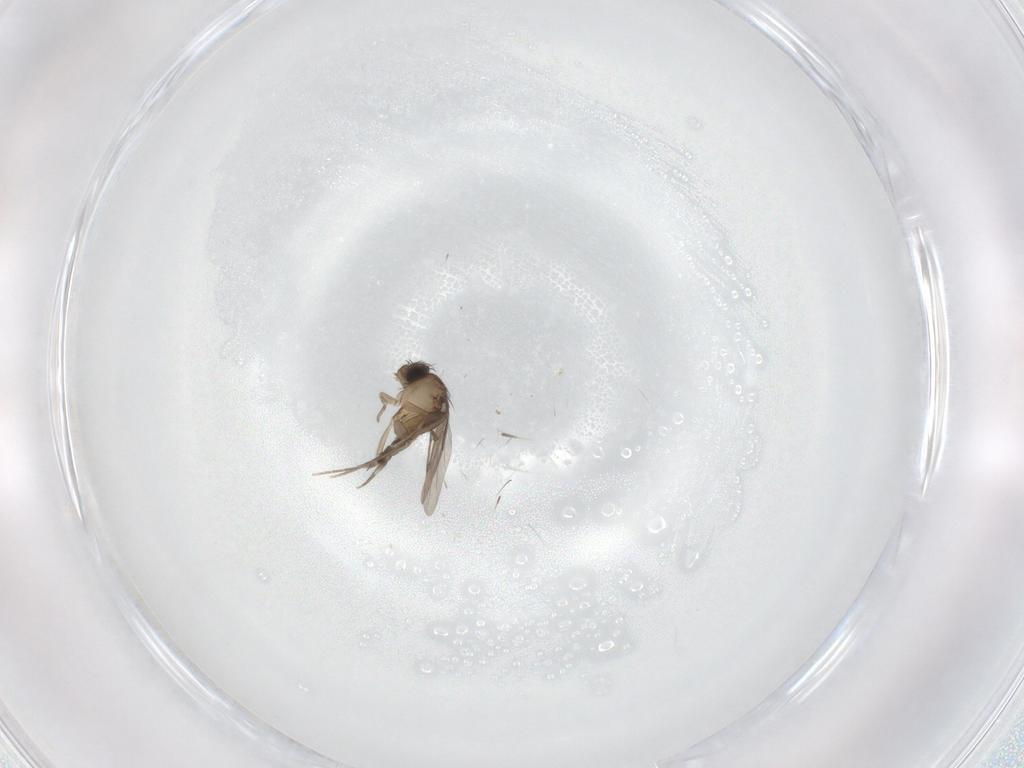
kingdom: Animalia
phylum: Arthropoda
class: Insecta
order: Diptera
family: Phoridae
